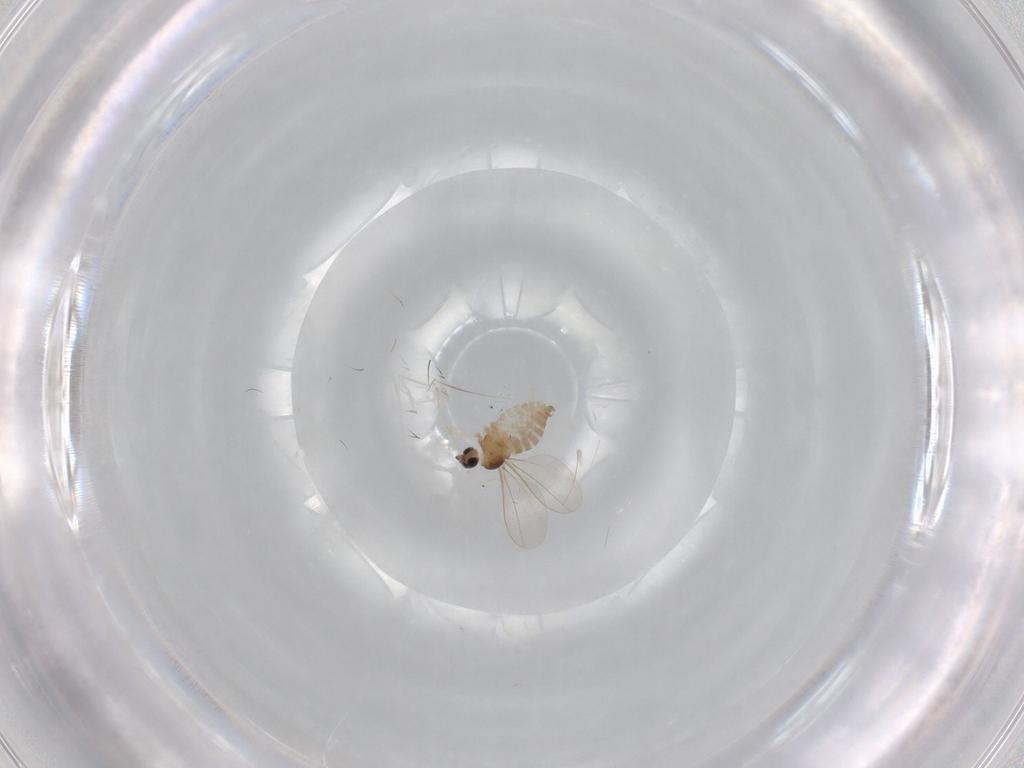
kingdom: Animalia
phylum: Arthropoda
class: Insecta
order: Diptera
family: Cecidomyiidae
